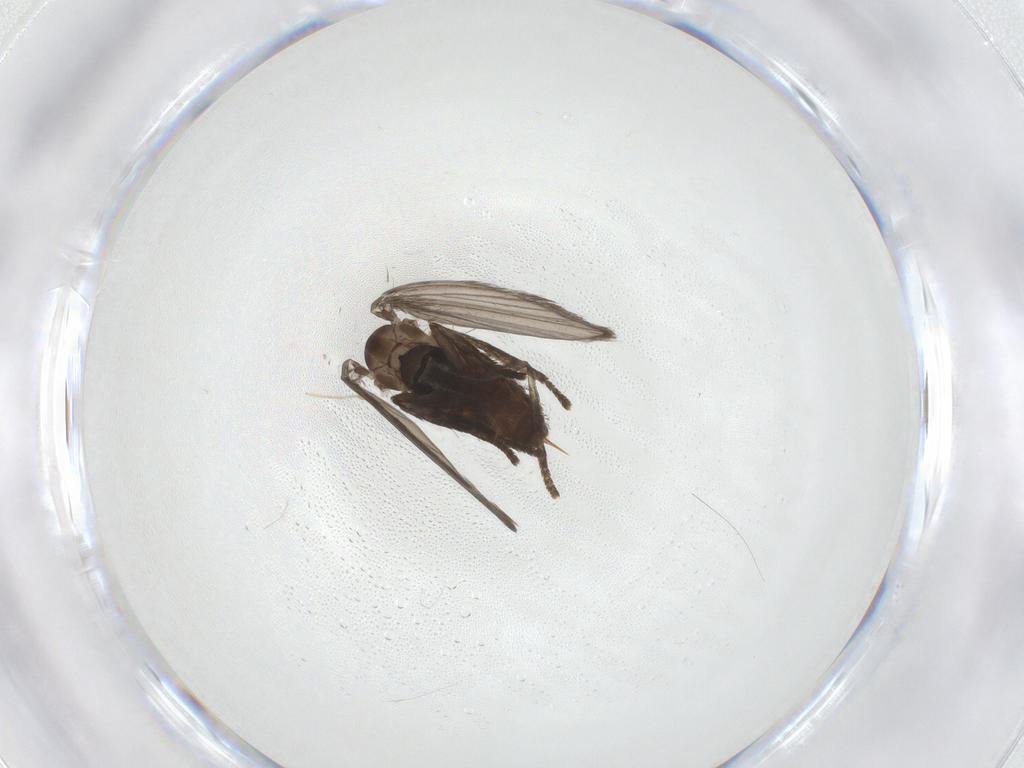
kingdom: Animalia
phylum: Arthropoda
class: Insecta
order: Diptera
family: Psychodidae
